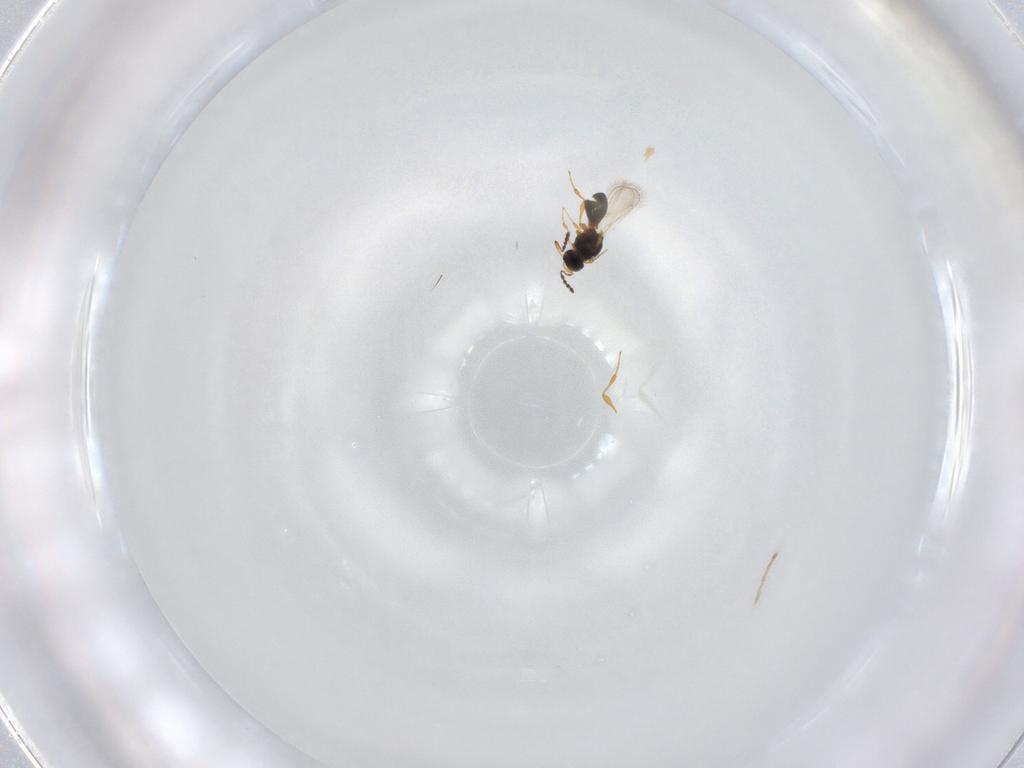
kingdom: Animalia
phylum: Arthropoda
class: Insecta
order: Hymenoptera
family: Platygastridae
